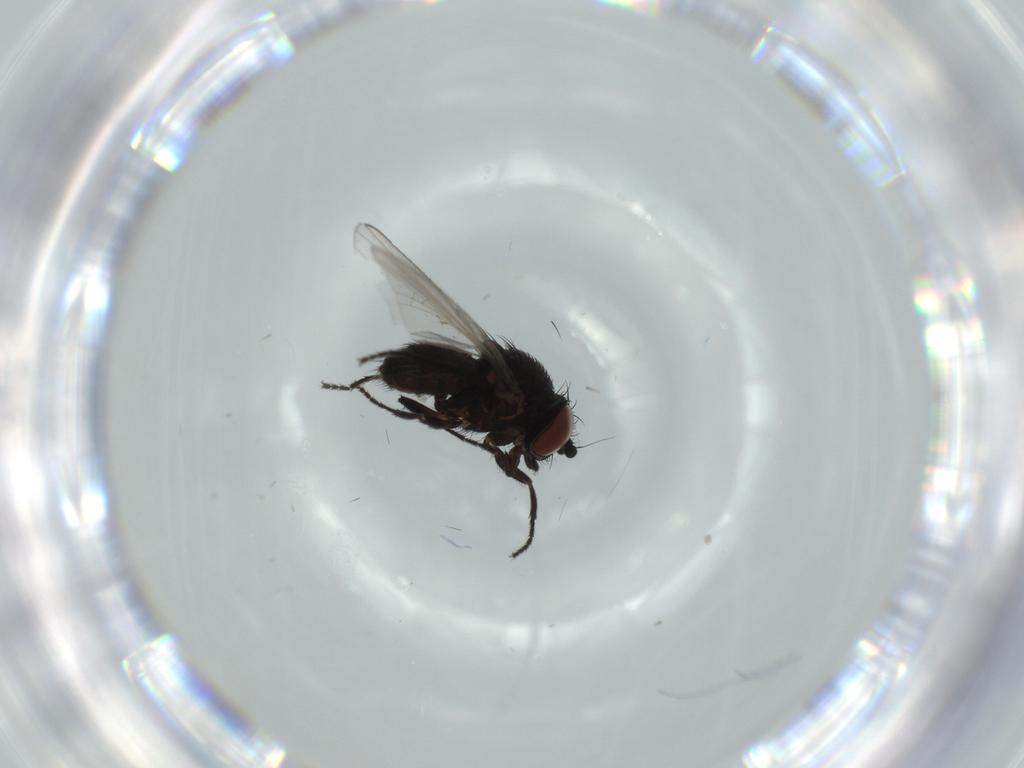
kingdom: Animalia
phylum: Arthropoda
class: Insecta
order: Diptera
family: Milichiidae
